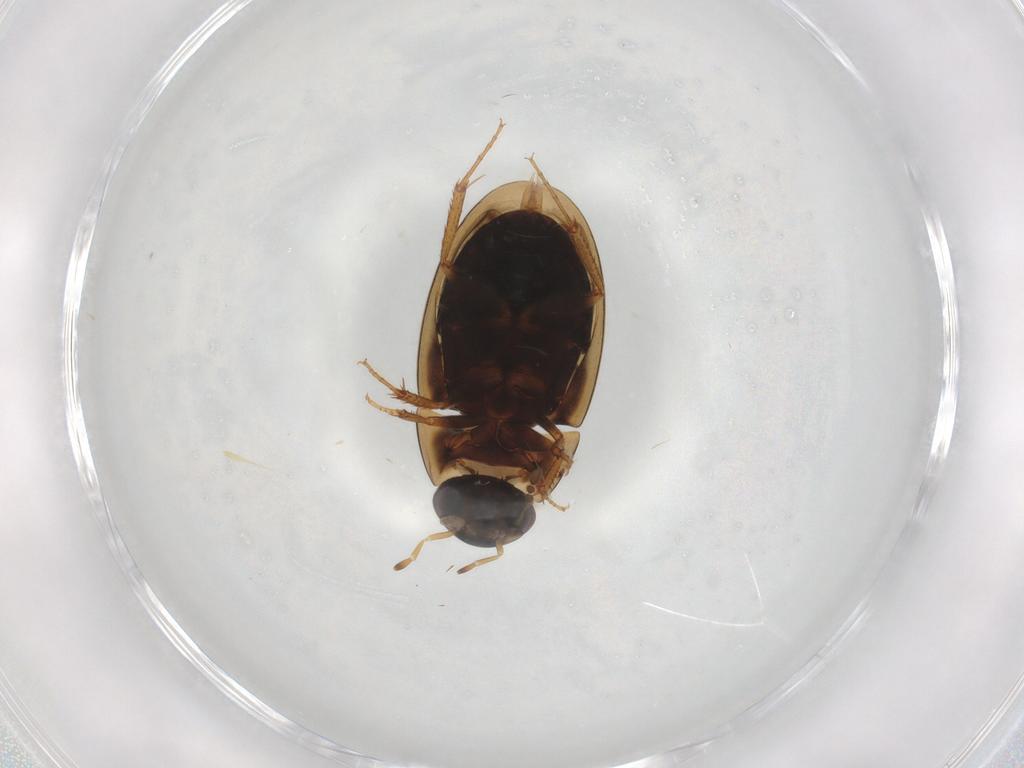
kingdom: Animalia
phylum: Arthropoda
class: Insecta
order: Coleoptera
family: Hydrophilidae
